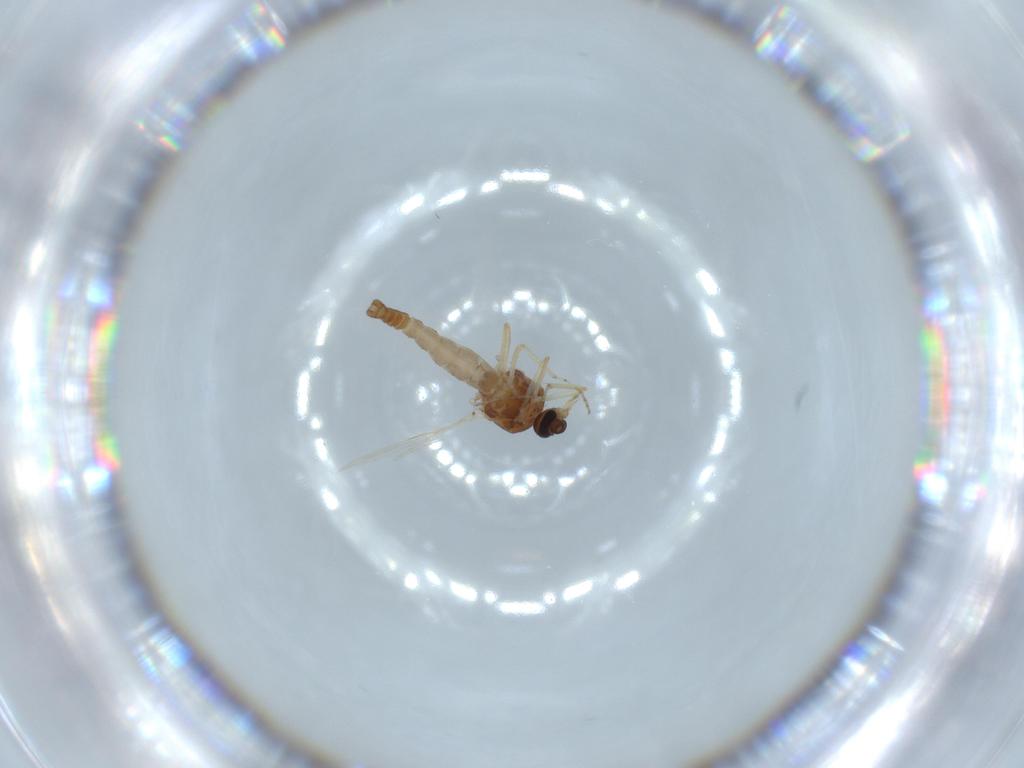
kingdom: Animalia
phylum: Arthropoda
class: Insecta
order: Diptera
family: Ceratopogonidae
